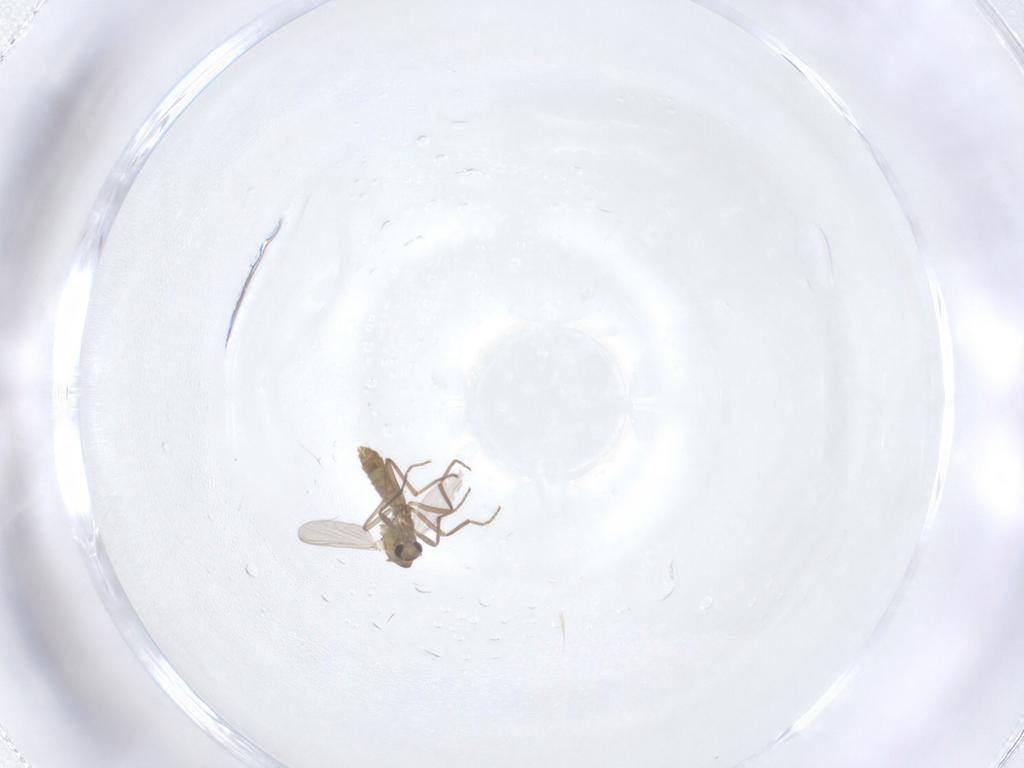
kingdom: Animalia
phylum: Arthropoda
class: Insecta
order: Diptera
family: Chironomidae
